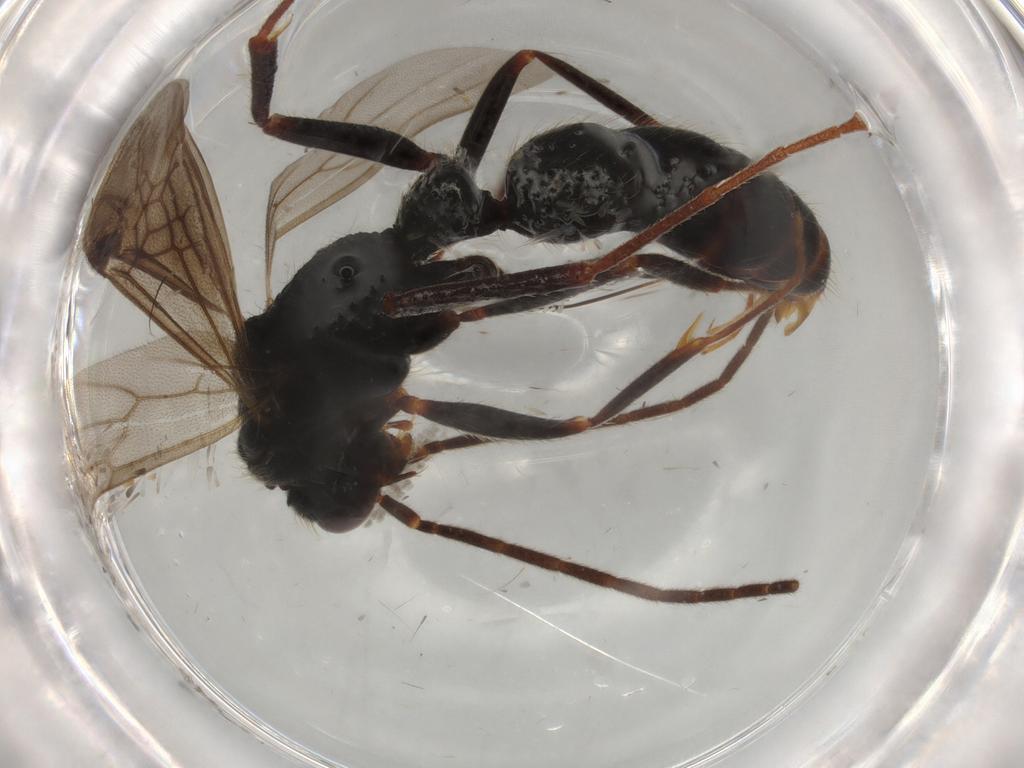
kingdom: Animalia
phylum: Arthropoda
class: Insecta
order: Hymenoptera
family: Formicidae
